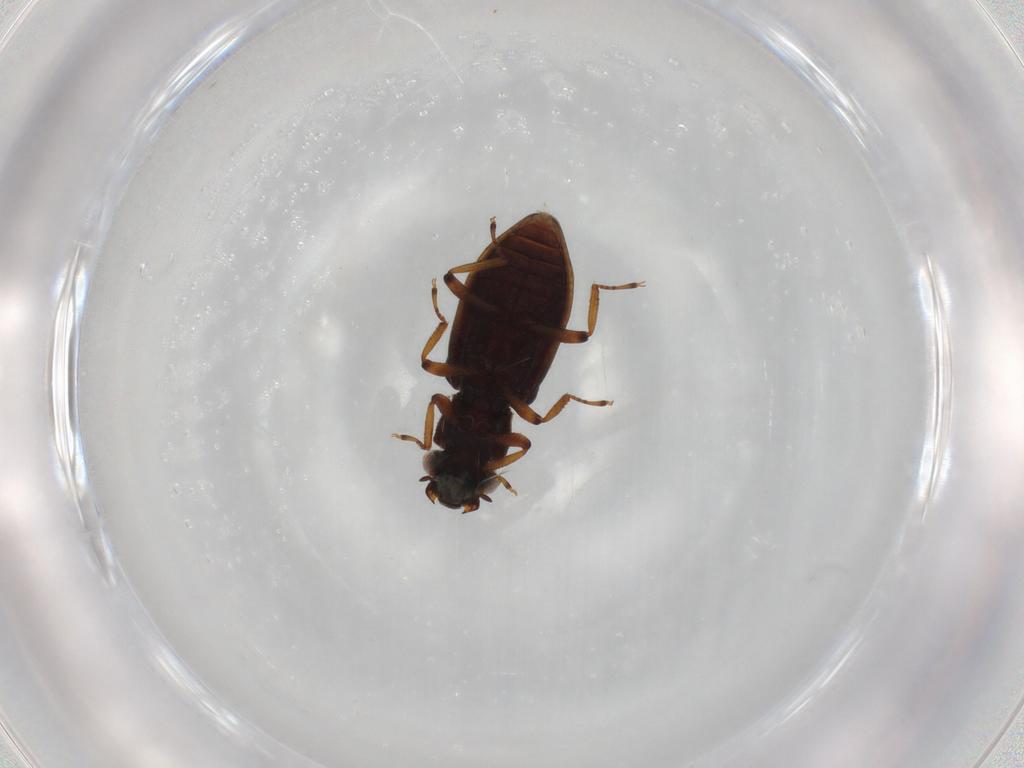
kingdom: Animalia
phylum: Arthropoda
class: Insecta
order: Coleoptera
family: Hydrophilidae
